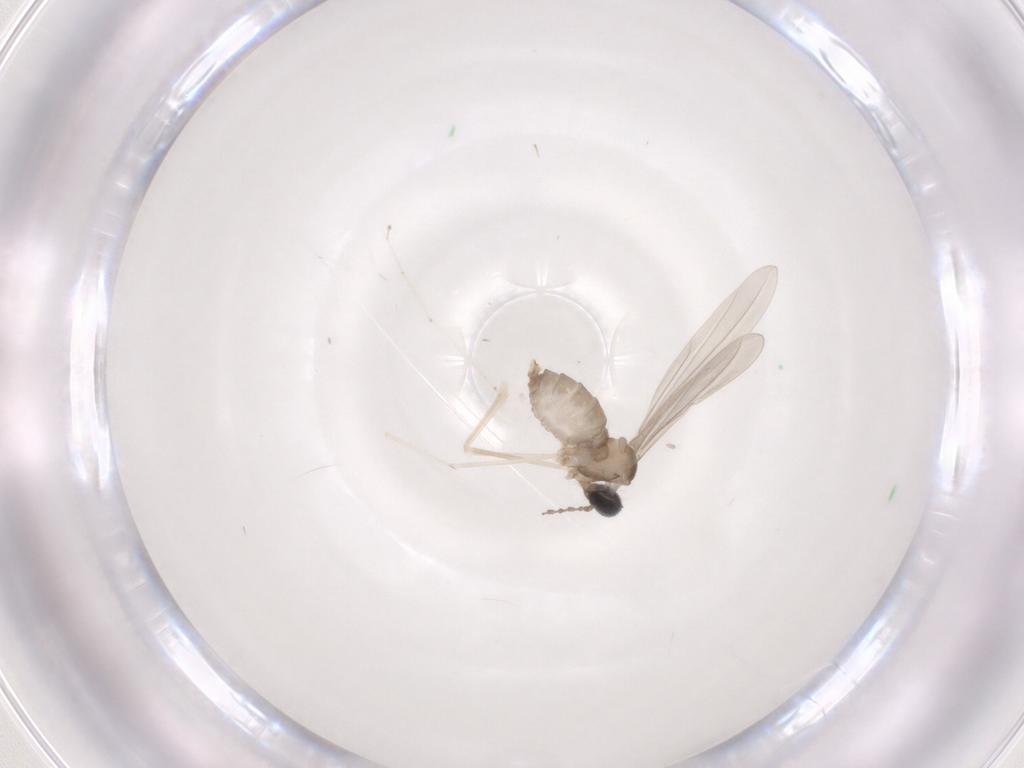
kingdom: Animalia
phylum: Arthropoda
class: Insecta
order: Diptera
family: Cecidomyiidae
